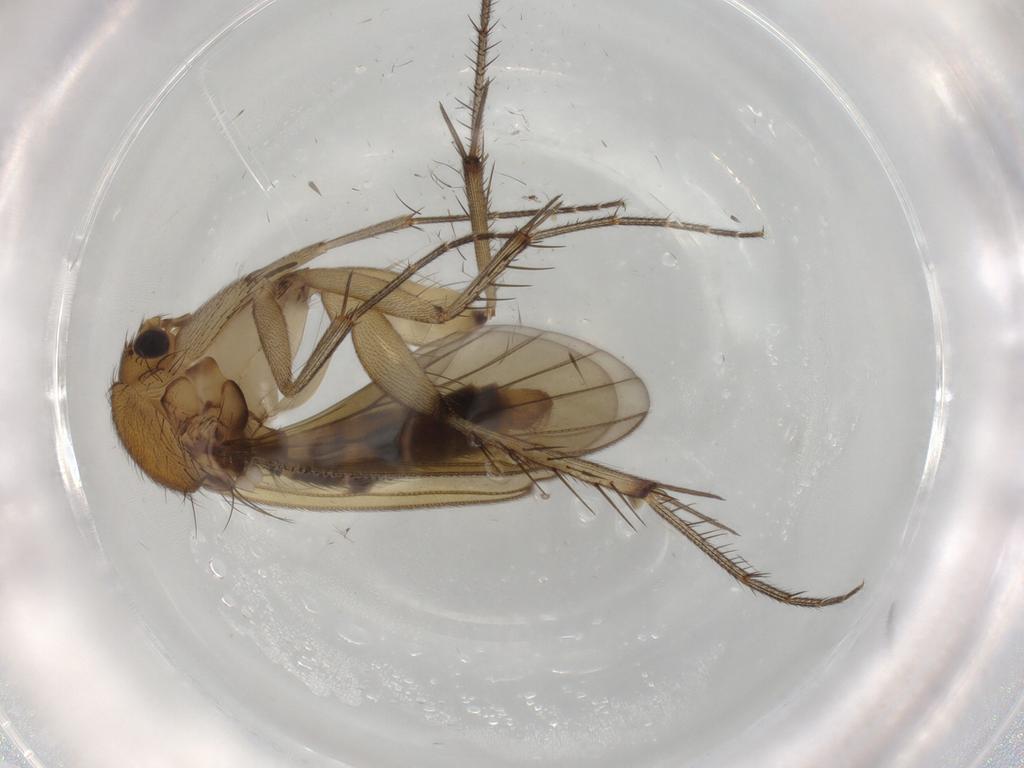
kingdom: Animalia
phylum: Arthropoda
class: Insecta
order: Diptera
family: Mycetophilidae
